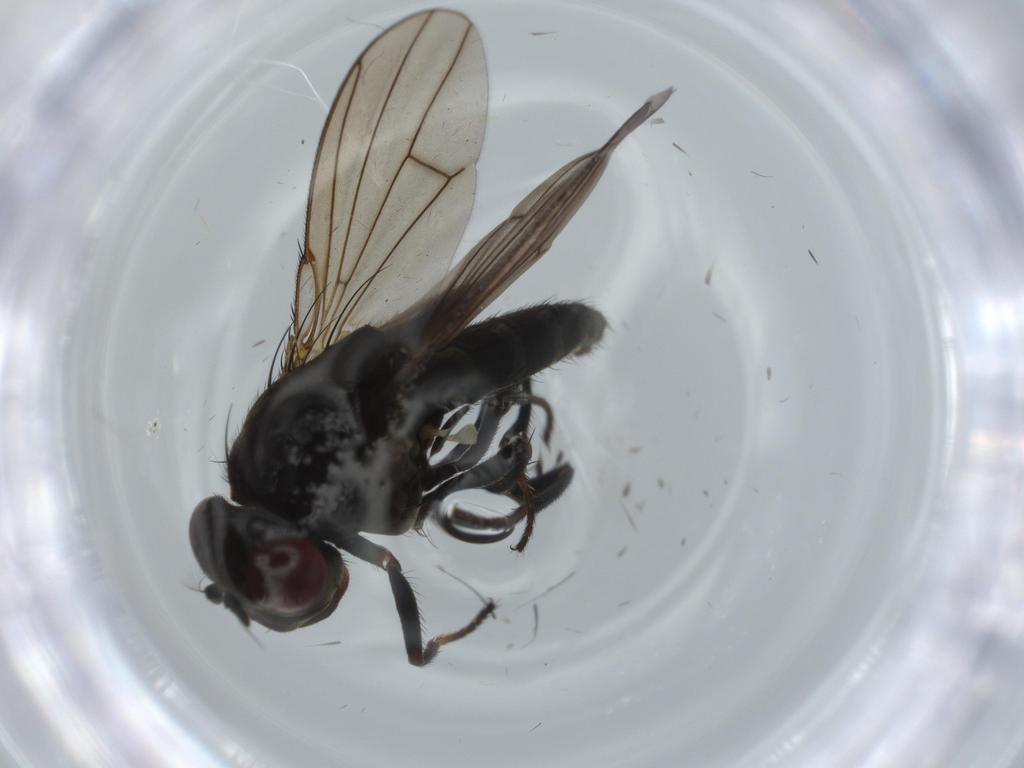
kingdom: Animalia
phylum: Arthropoda
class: Insecta
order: Diptera
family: Ephydridae
